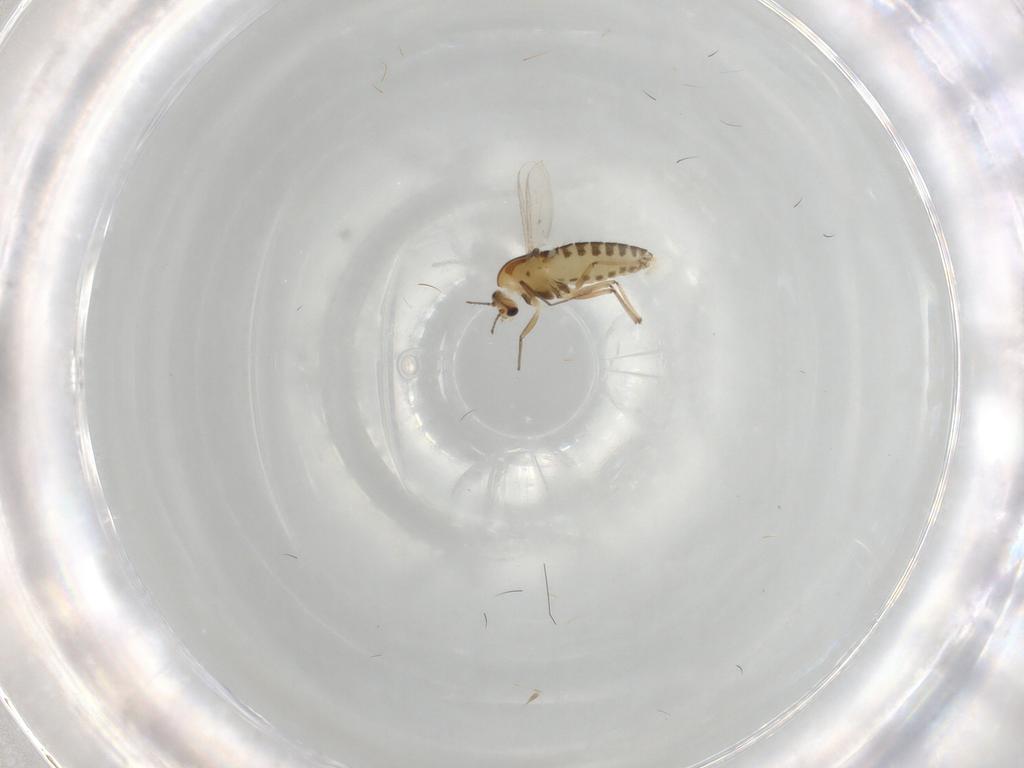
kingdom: Animalia
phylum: Arthropoda
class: Insecta
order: Diptera
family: Chironomidae
